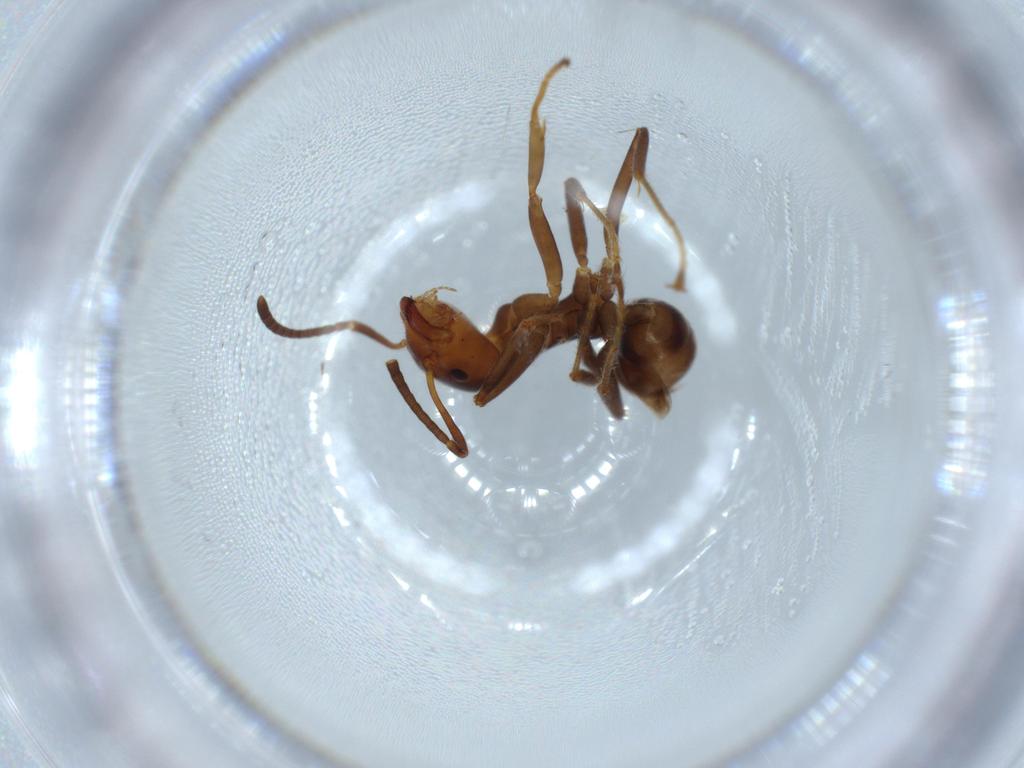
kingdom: Animalia
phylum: Arthropoda
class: Insecta
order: Hymenoptera
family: Formicidae
